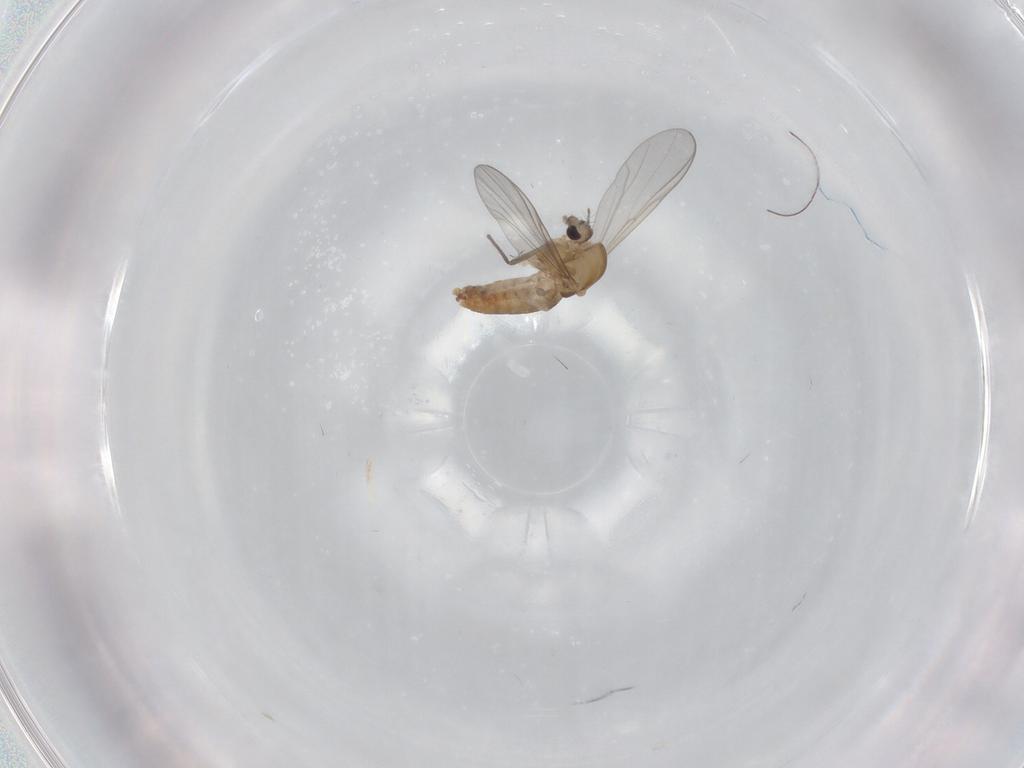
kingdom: Animalia
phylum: Arthropoda
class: Insecta
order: Diptera
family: Chironomidae
